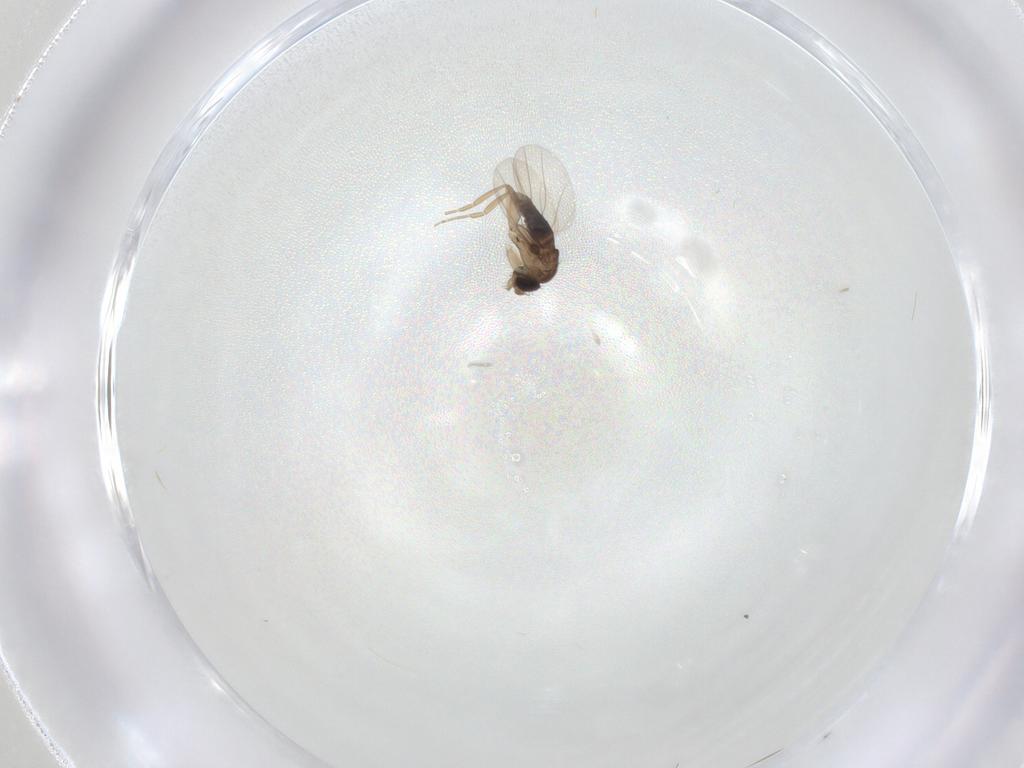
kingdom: Animalia
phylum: Arthropoda
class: Insecta
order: Diptera
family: Cecidomyiidae
